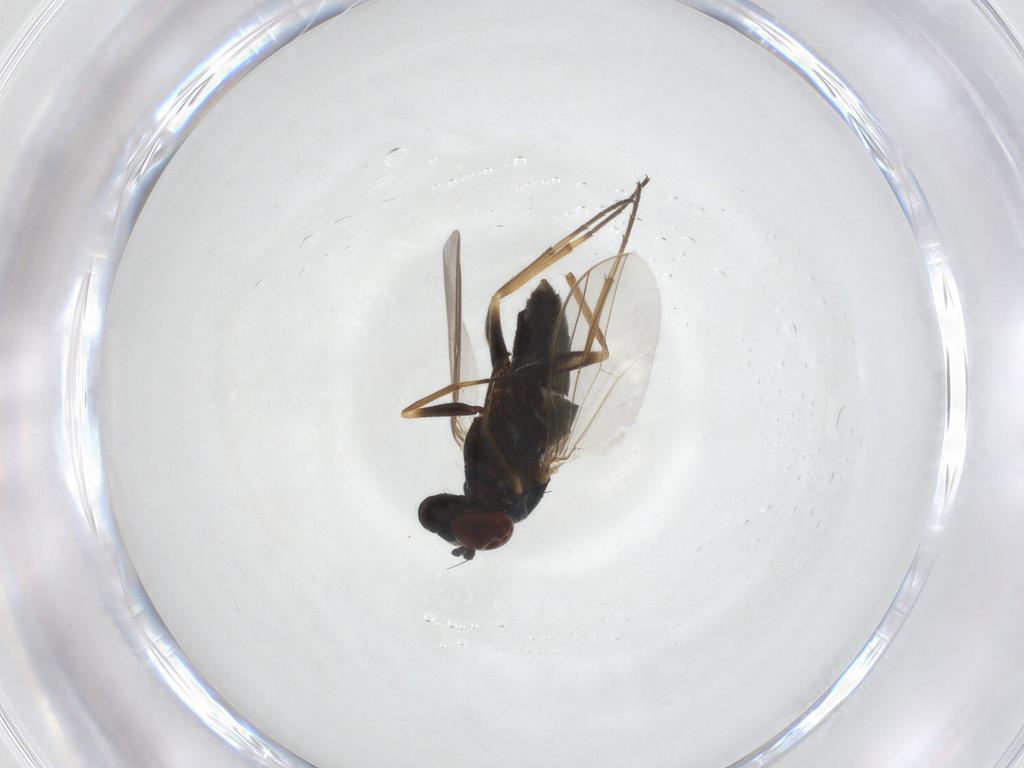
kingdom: Animalia
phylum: Arthropoda
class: Insecta
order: Diptera
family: Dolichopodidae
